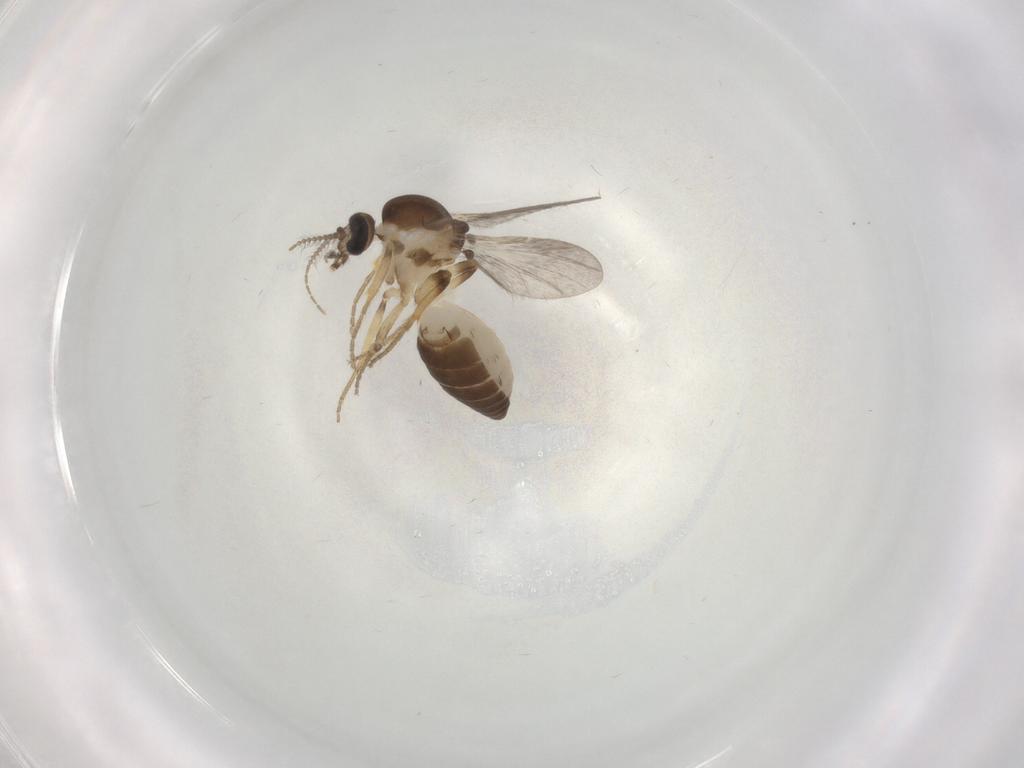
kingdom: Animalia
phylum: Arthropoda
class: Insecta
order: Diptera
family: Ceratopogonidae
